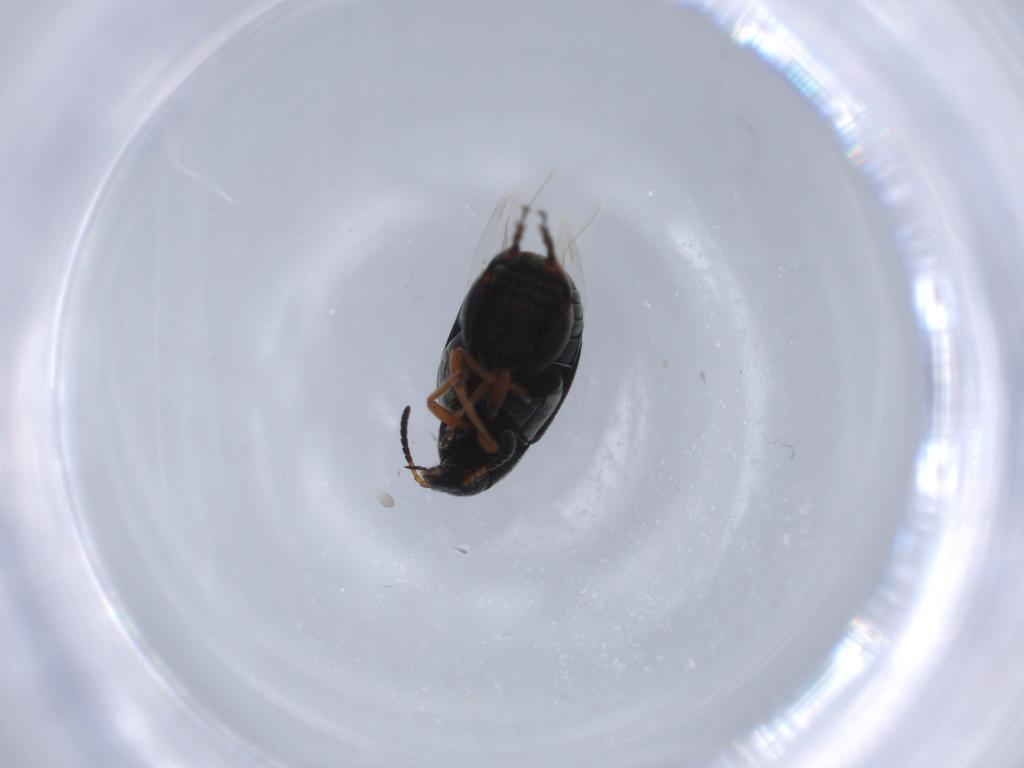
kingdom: Animalia
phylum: Arthropoda
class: Insecta
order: Coleoptera
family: Chrysomelidae
